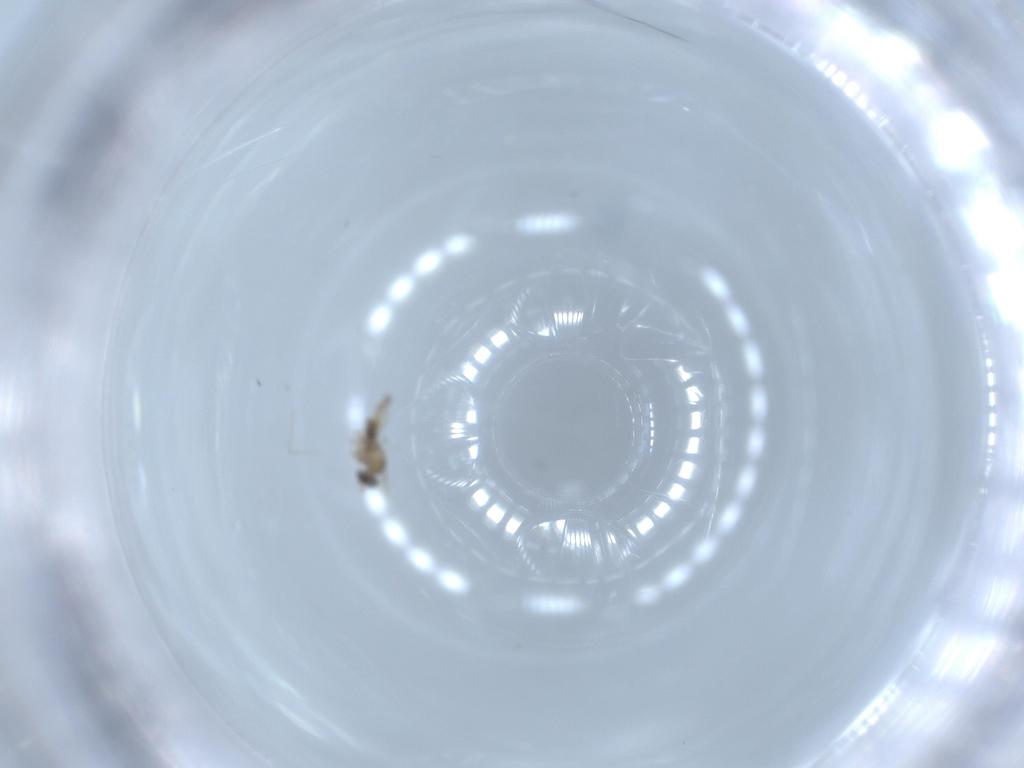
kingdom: Animalia
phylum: Arthropoda
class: Insecta
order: Diptera
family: Cecidomyiidae
